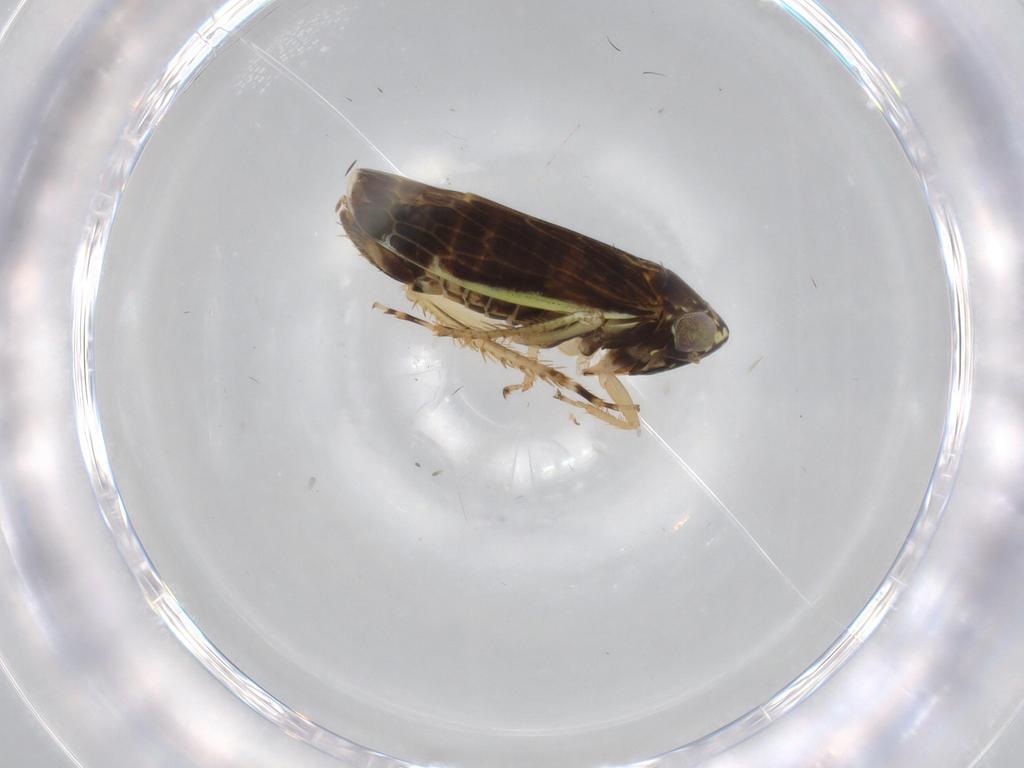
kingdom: Animalia
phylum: Arthropoda
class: Insecta
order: Hemiptera
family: Cicadellidae
